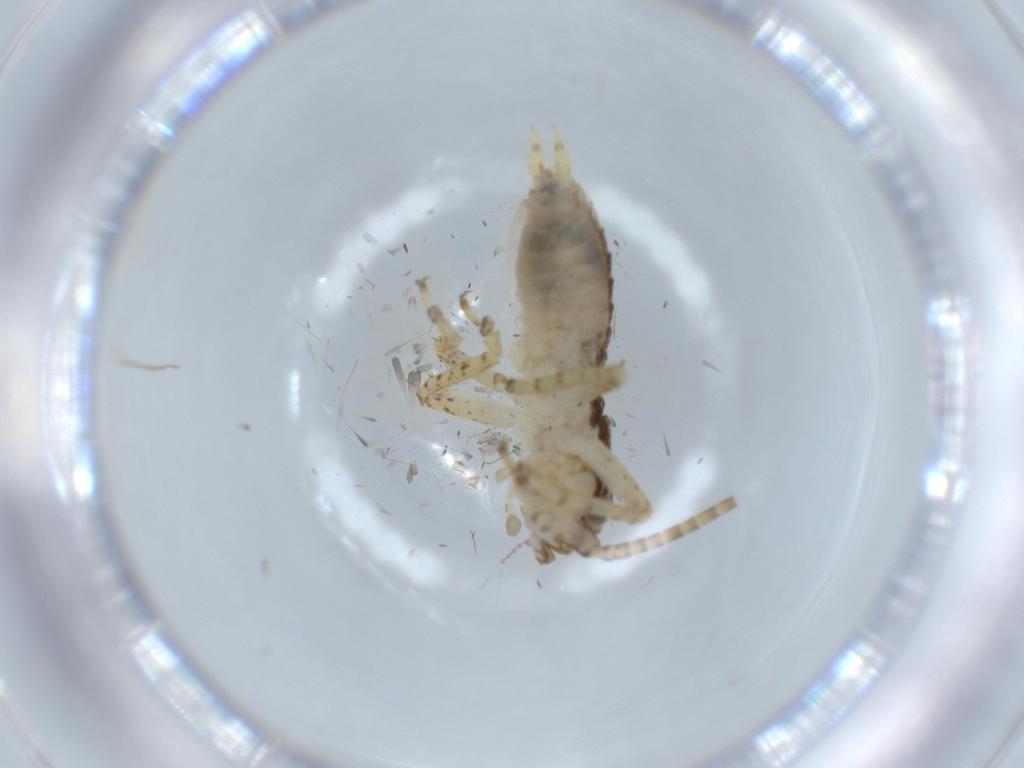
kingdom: Animalia
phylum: Arthropoda
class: Insecta
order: Orthoptera
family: Gryllidae
